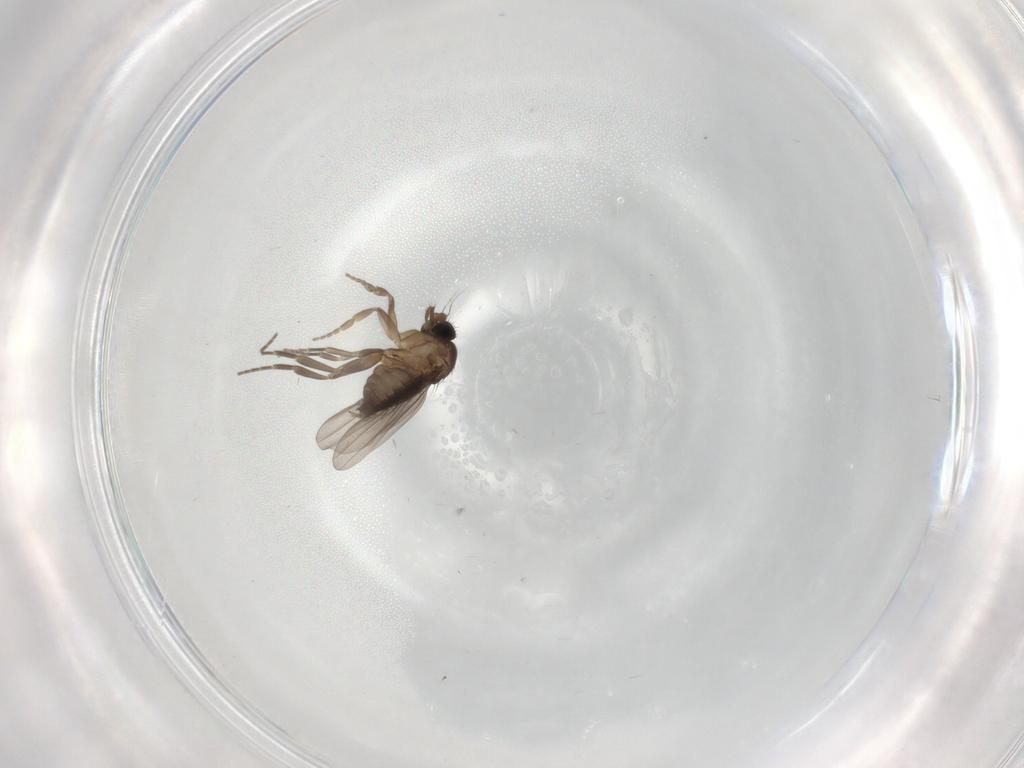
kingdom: Animalia
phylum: Arthropoda
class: Insecta
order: Diptera
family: Phoridae
